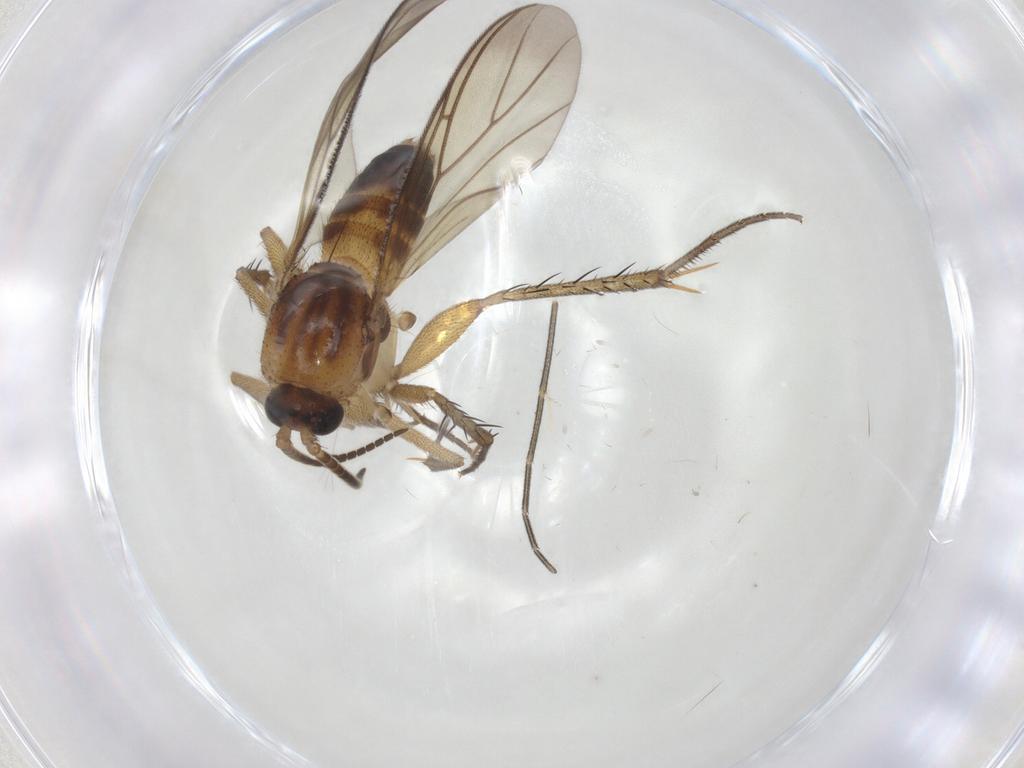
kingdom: Animalia
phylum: Arthropoda
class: Insecta
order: Diptera
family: Mycetophilidae
